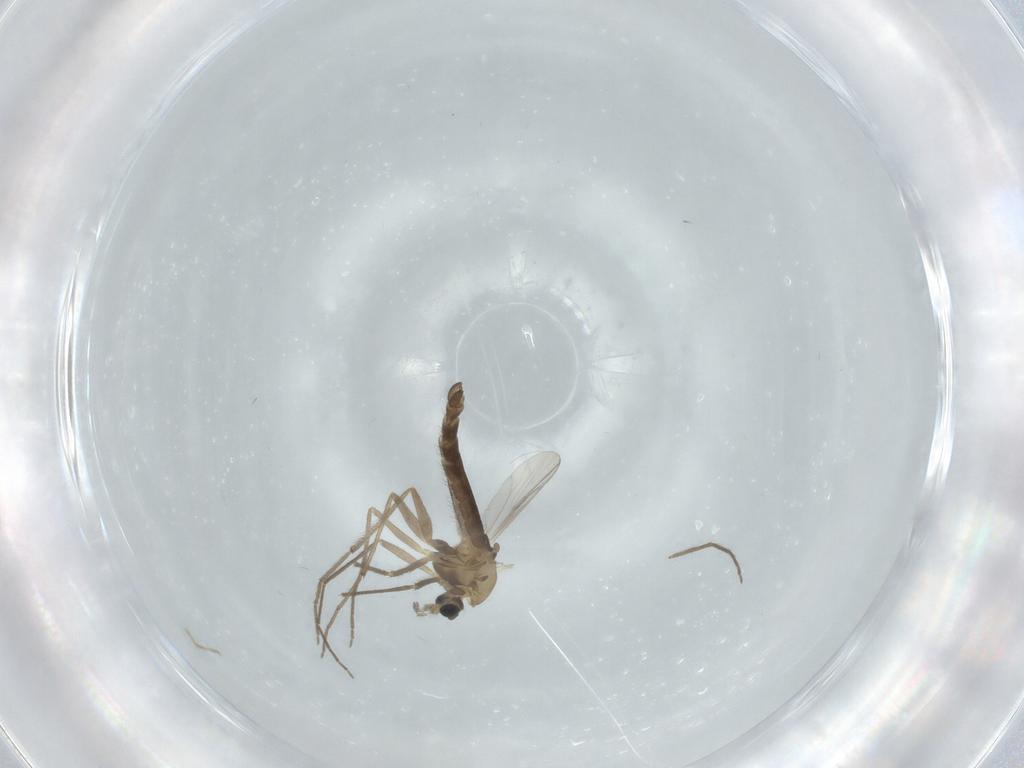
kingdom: Animalia
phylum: Arthropoda
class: Insecta
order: Diptera
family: Chironomidae
